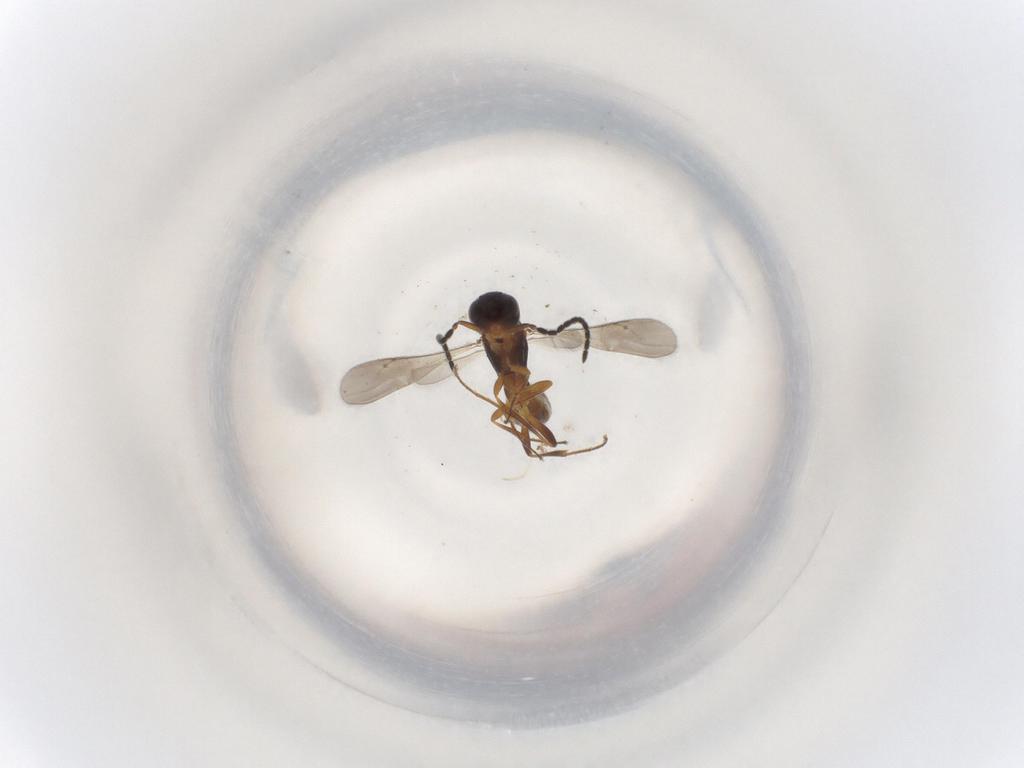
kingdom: Animalia
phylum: Arthropoda
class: Insecta
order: Hymenoptera
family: Scelionidae
